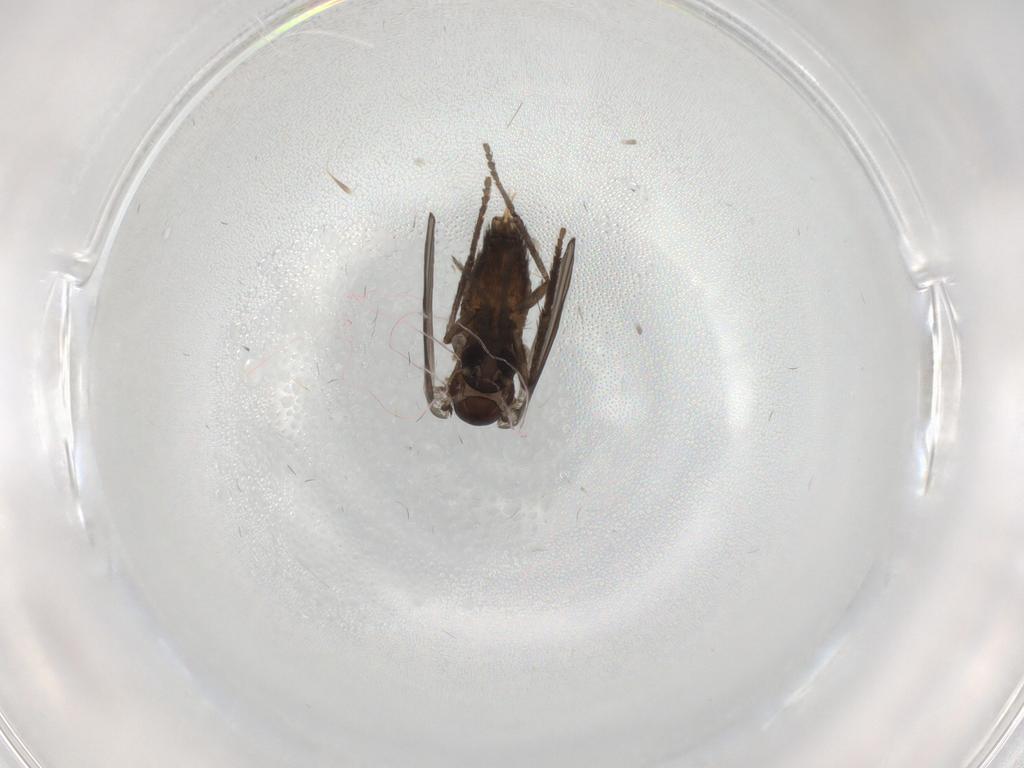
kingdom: Animalia
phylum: Arthropoda
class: Insecta
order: Diptera
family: Psychodidae
